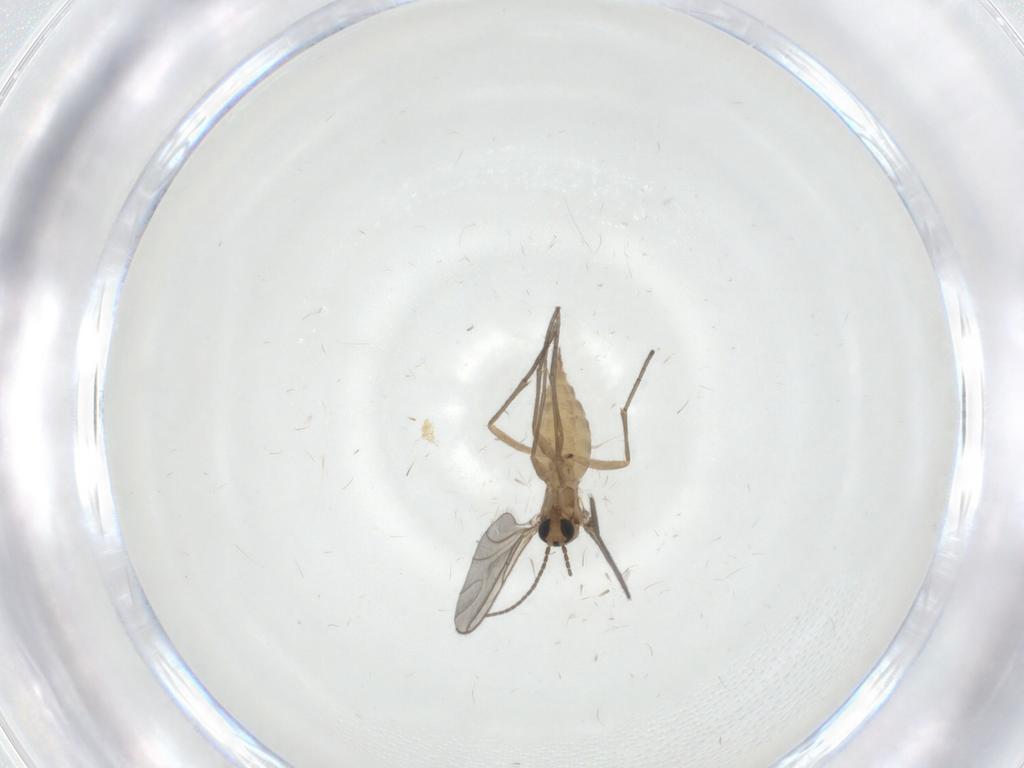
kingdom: Animalia
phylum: Arthropoda
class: Insecta
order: Diptera
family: Sciaridae
